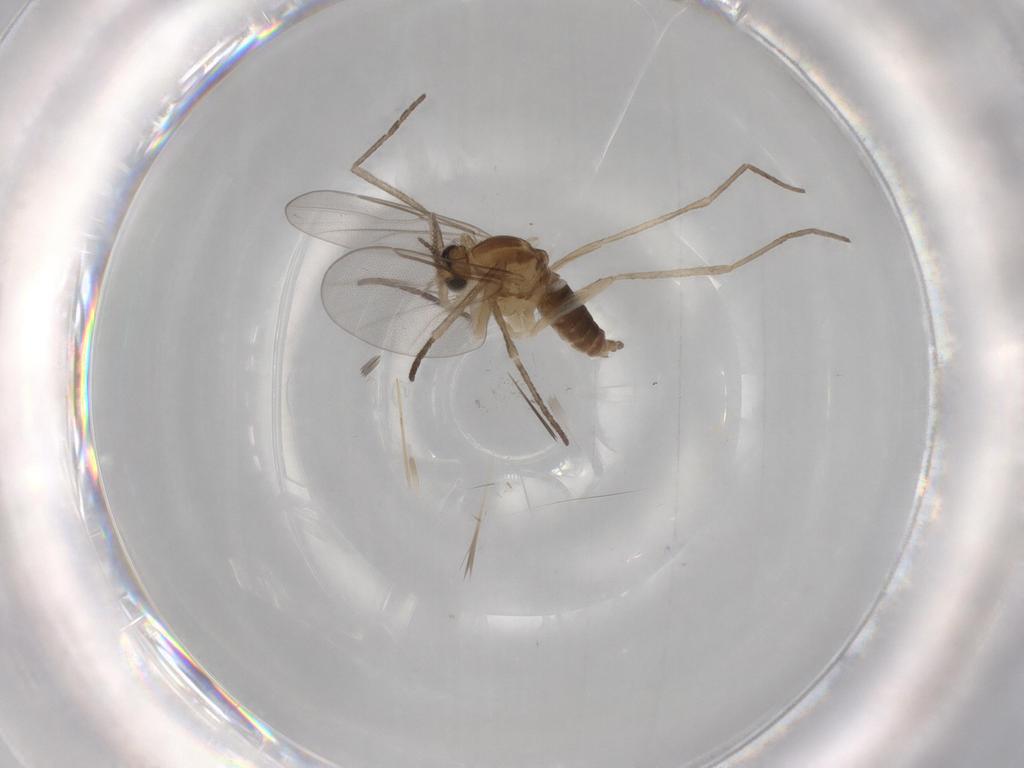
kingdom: Animalia
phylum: Arthropoda
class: Insecta
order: Diptera
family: Cecidomyiidae
